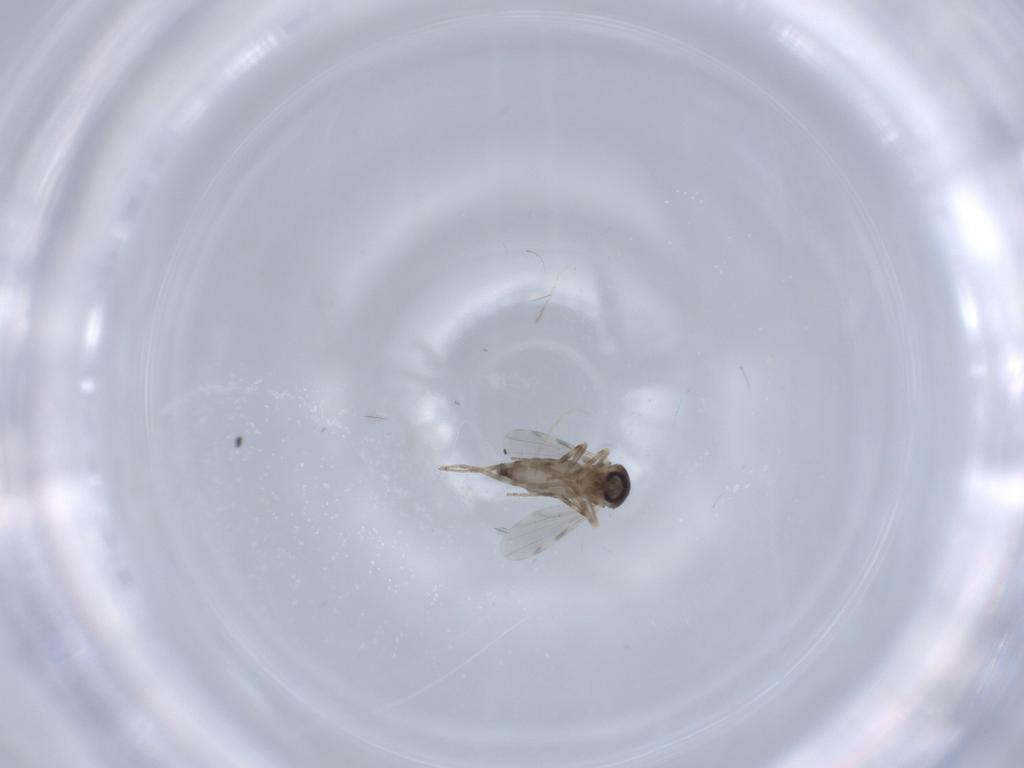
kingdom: Animalia
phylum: Arthropoda
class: Insecta
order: Diptera
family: Ceratopogonidae
